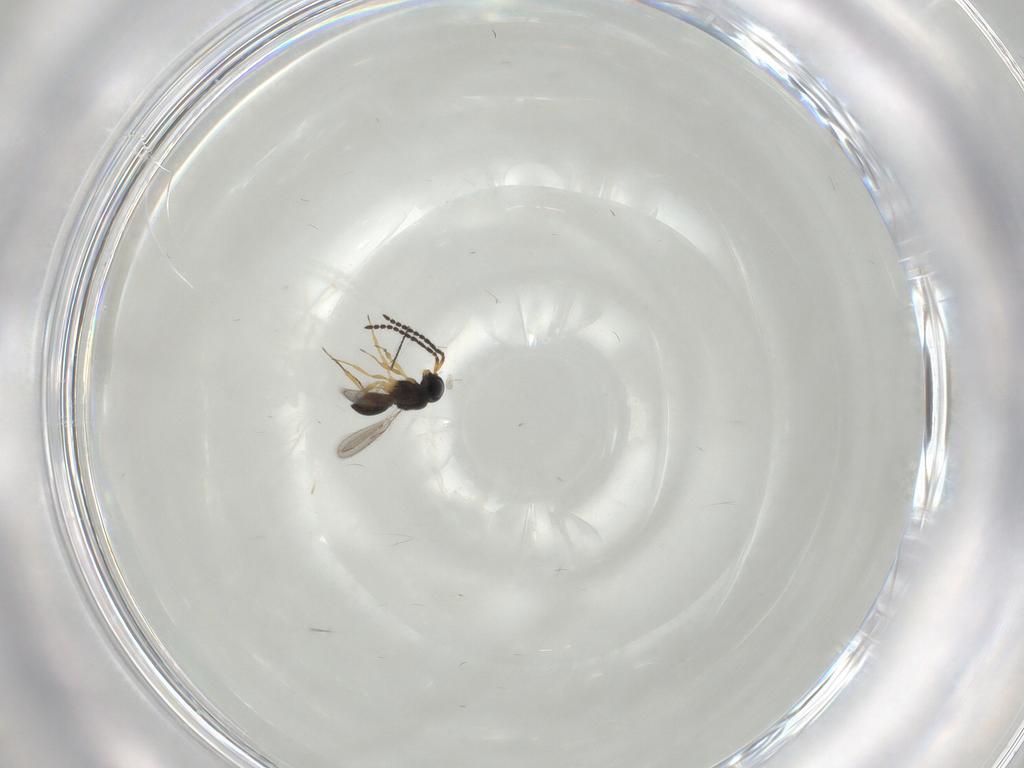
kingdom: Animalia
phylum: Arthropoda
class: Insecta
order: Hymenoptera
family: Scelionidae
